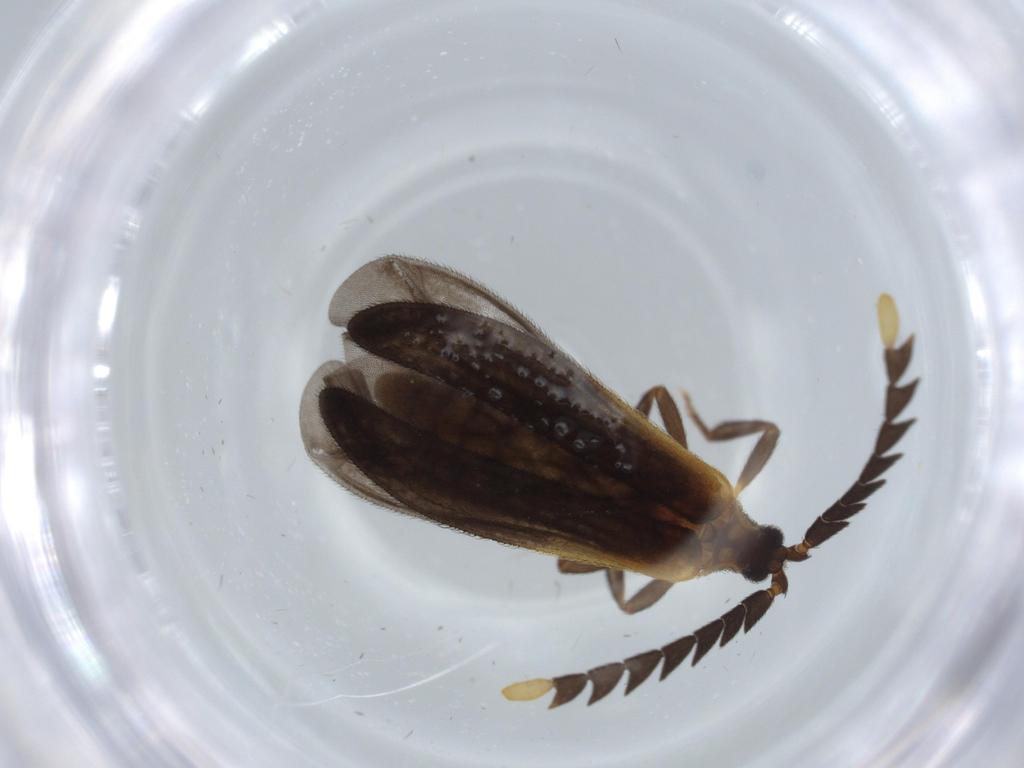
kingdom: Animalia
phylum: Arthropoda
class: Insecta
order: Coleoptera
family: Lycidae
